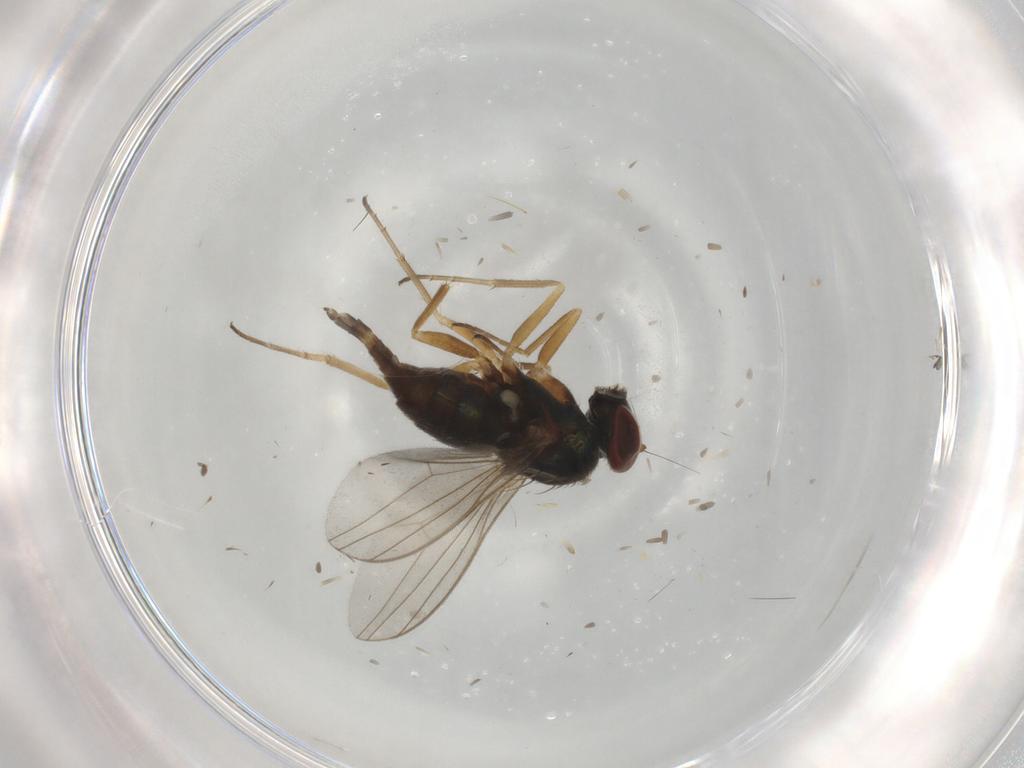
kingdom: Animalia
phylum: Arthropoda
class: Insecta
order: Diptera
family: Dolichopodidae
